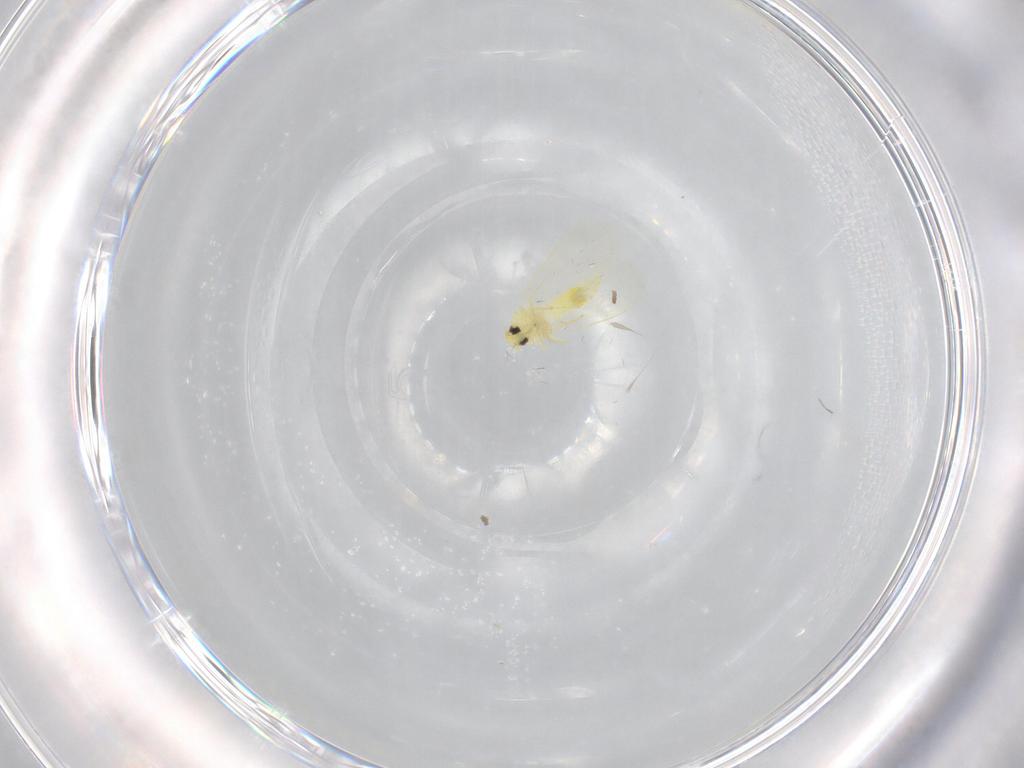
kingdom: Animalia
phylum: Arthropoda
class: Insecta
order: Hemiptera
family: Aleyrodidae
